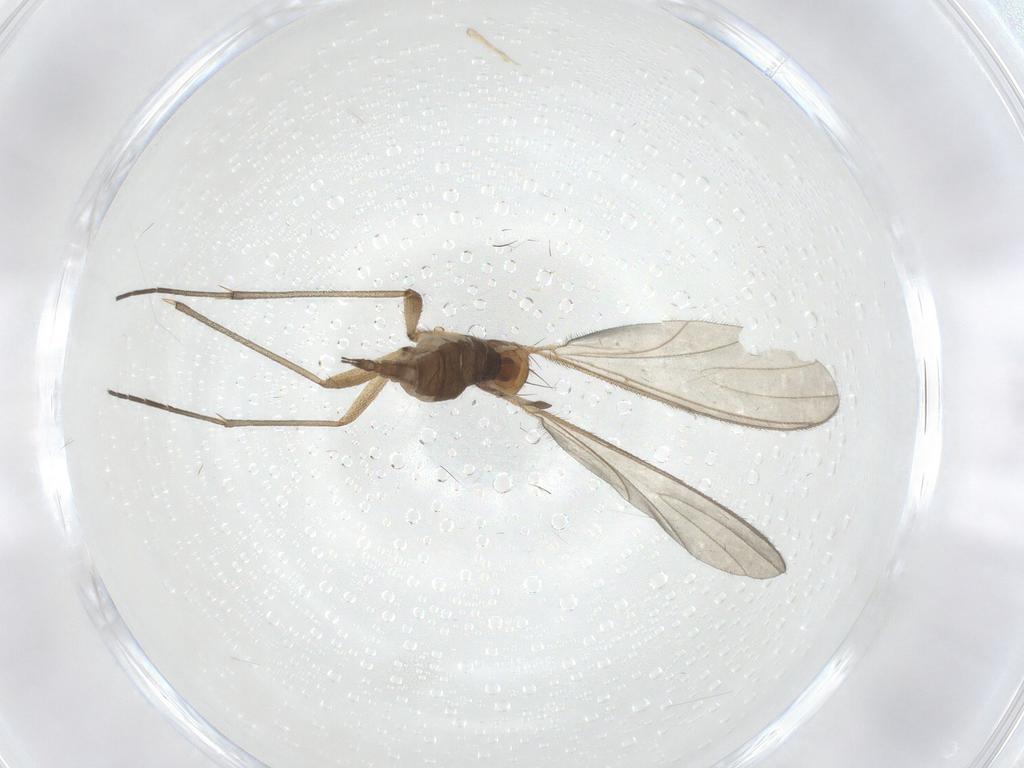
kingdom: Animalia
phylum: Arthropoda
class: Insecta
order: Diptera
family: Sciaridae
